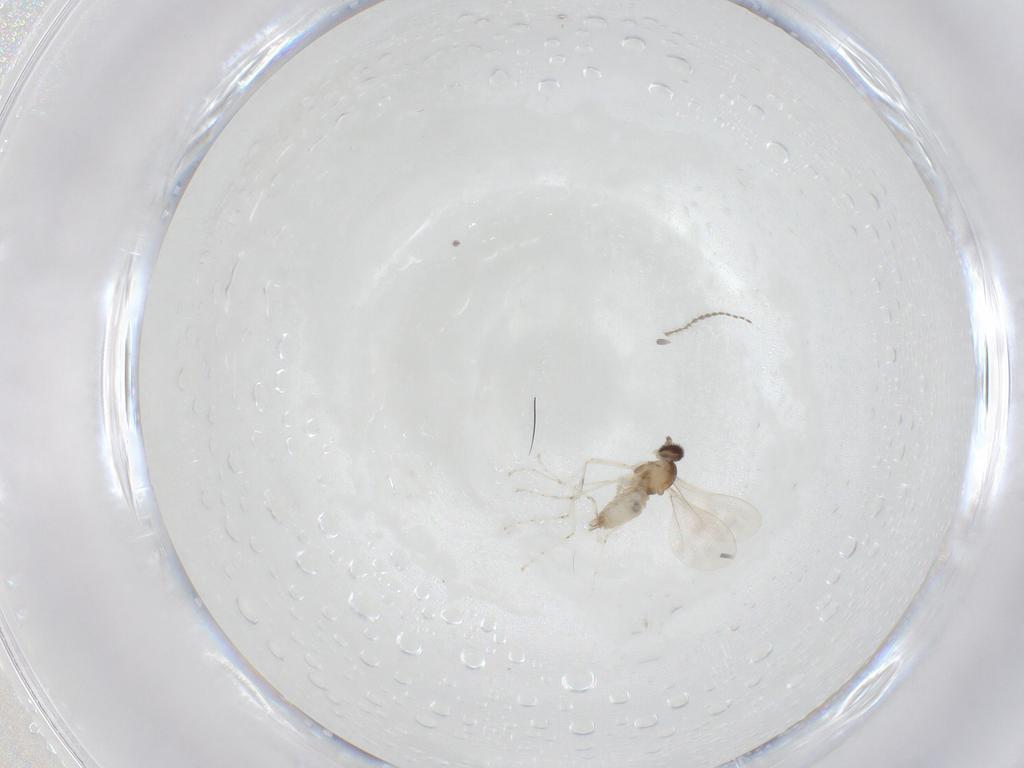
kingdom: Animalia
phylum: Arthropoda
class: Insecta
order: Diptera
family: Cecidomyiidae
